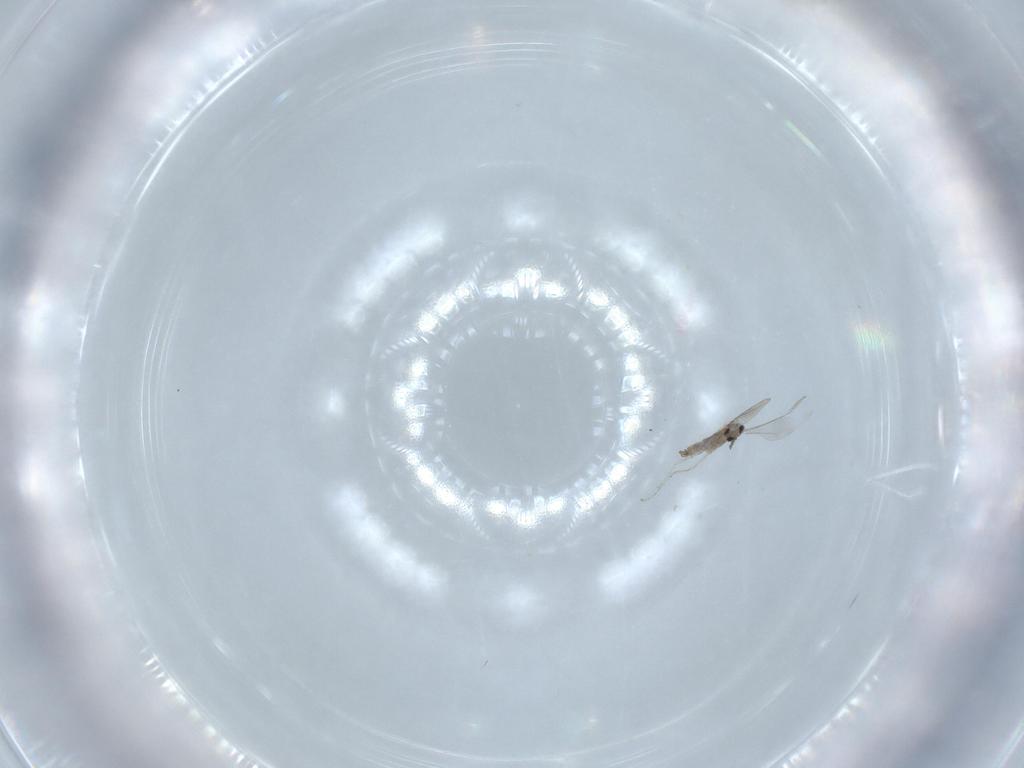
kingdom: Animalia
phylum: Arthropoda
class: Insecta
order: Diptera
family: Cecidomyiidae
